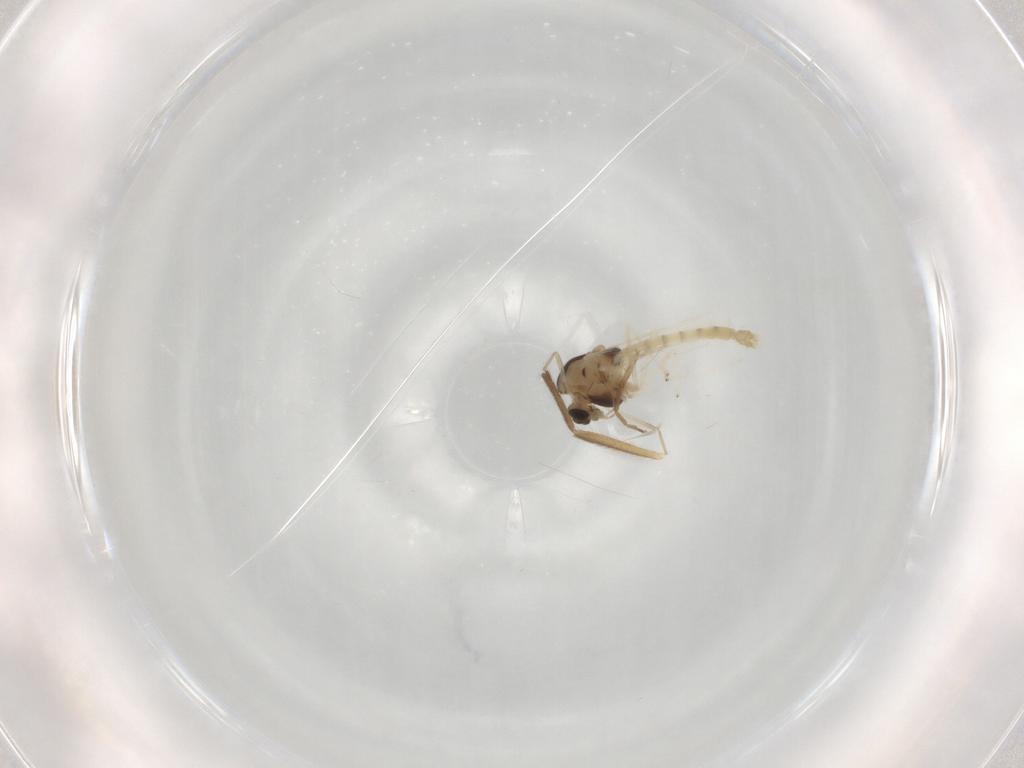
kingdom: Animalia
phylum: Arthropoda
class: Insecta
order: Diptera
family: Chironomidae
